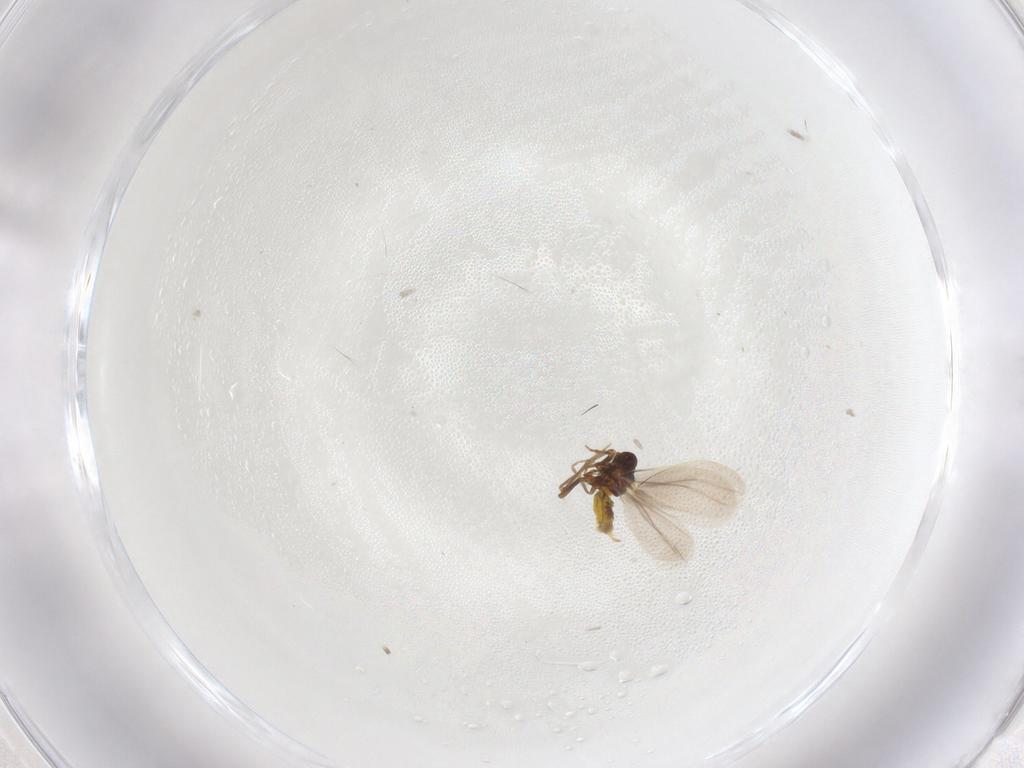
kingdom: Animalia
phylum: Arthropoda
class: Insecta
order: Hemiptera
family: Aleyrodidae
